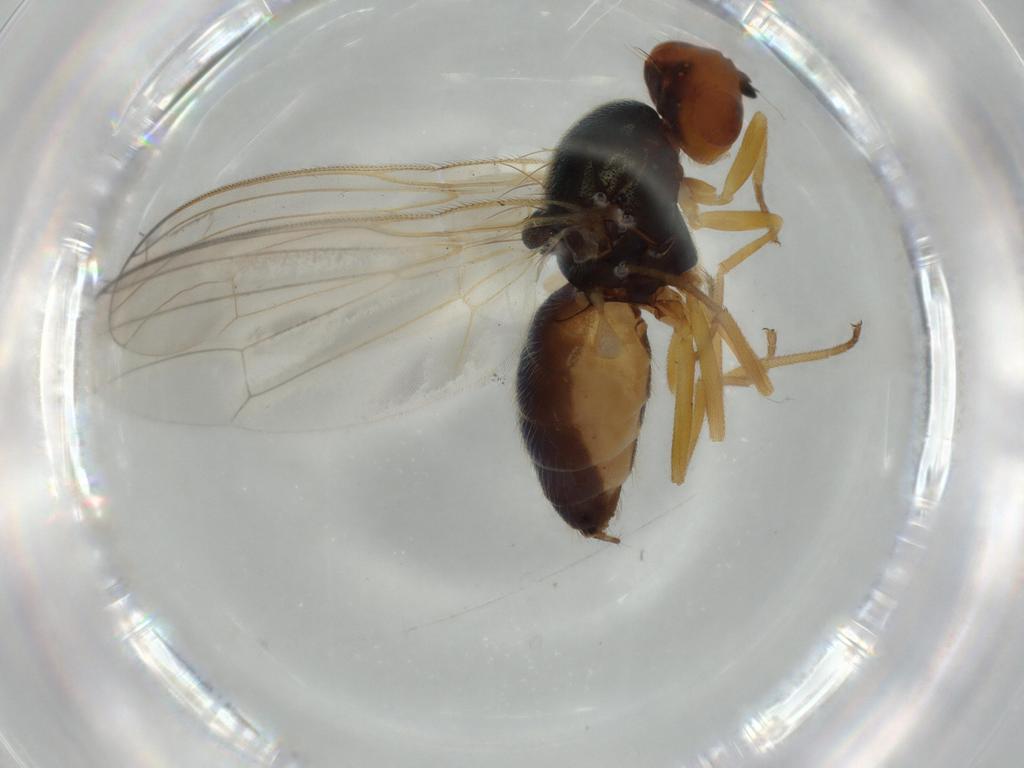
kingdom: Animalia
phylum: Arthropoda
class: Insecta
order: Diptera
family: Psilidae
